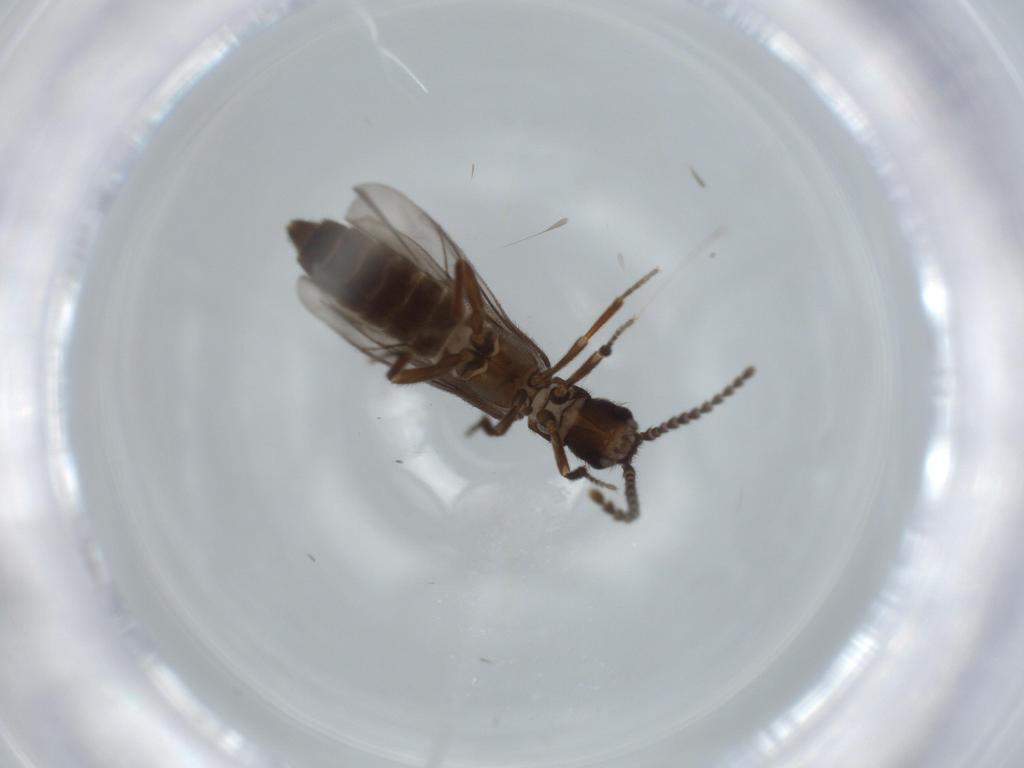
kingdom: Animalia
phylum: Arthropoda
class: Insecta
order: Coleoptera
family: Omethidae
